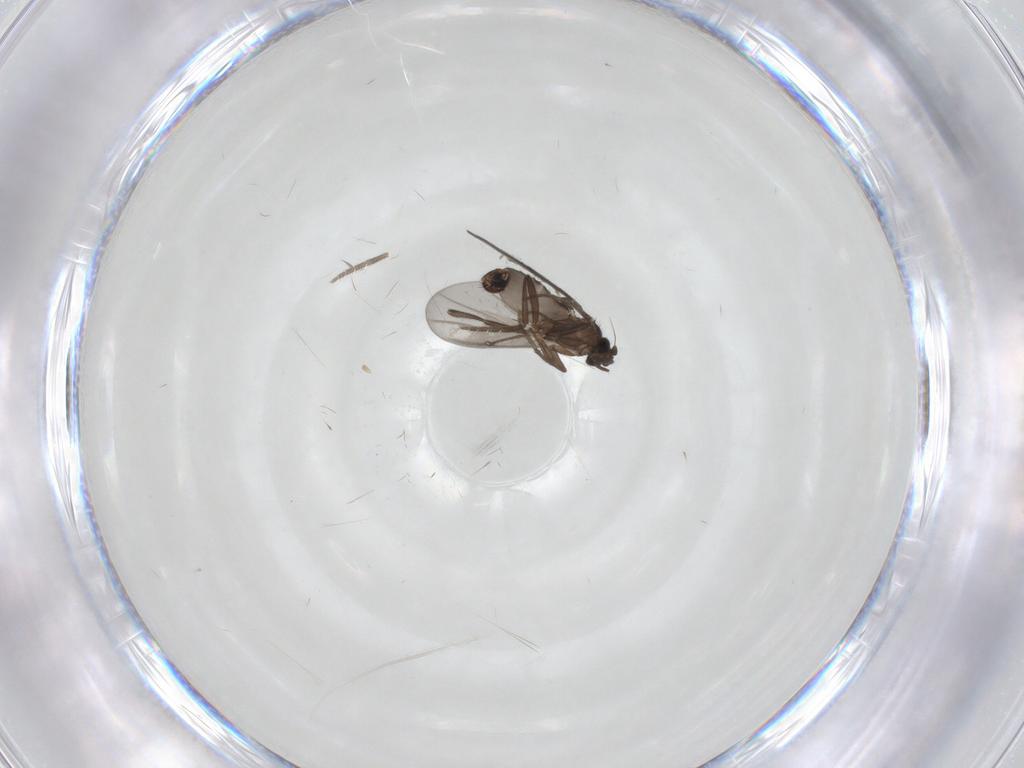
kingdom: Animalia
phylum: Arthropoda
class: Insecta
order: Diptera
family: Phoridae
